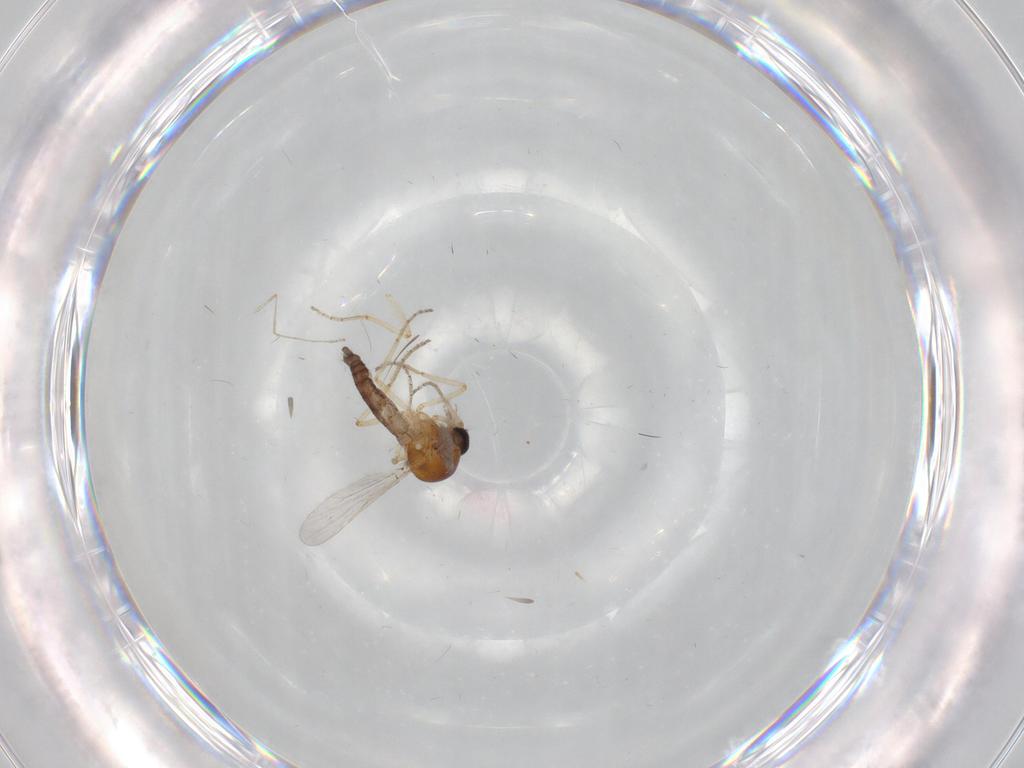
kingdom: Animalia
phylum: Arthropoda
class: Insecta
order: Diptera
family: Cecidomyiidae
